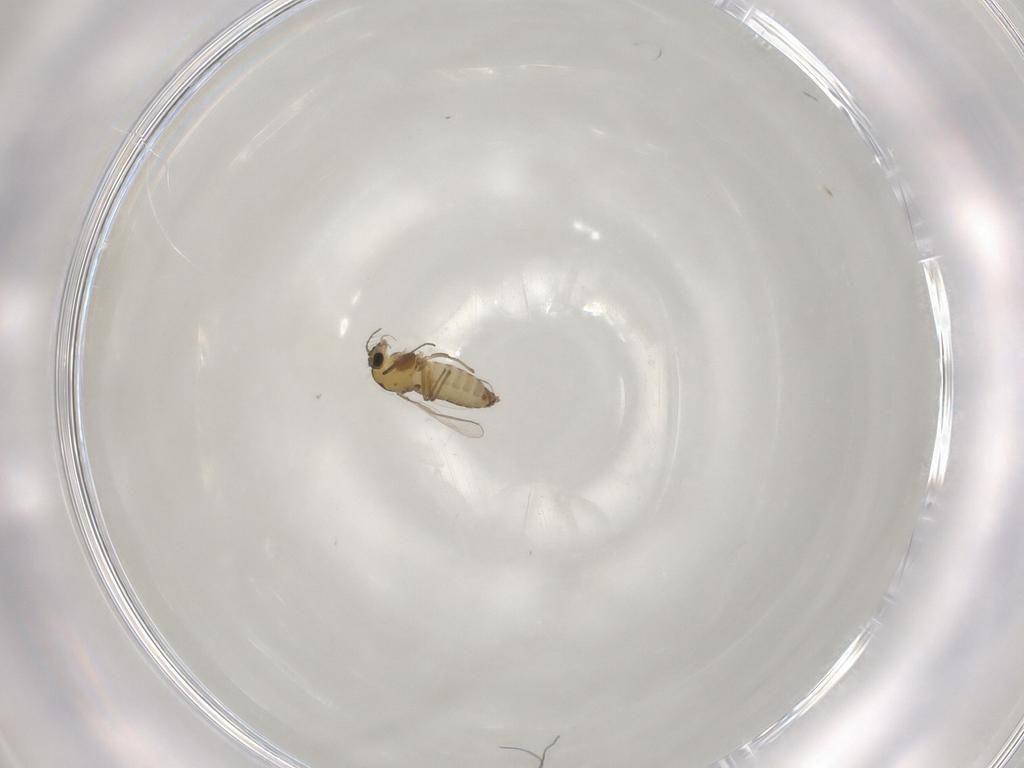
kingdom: Animalia
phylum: Arthropoda
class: Insecta
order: Diptera
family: Chironomidae
